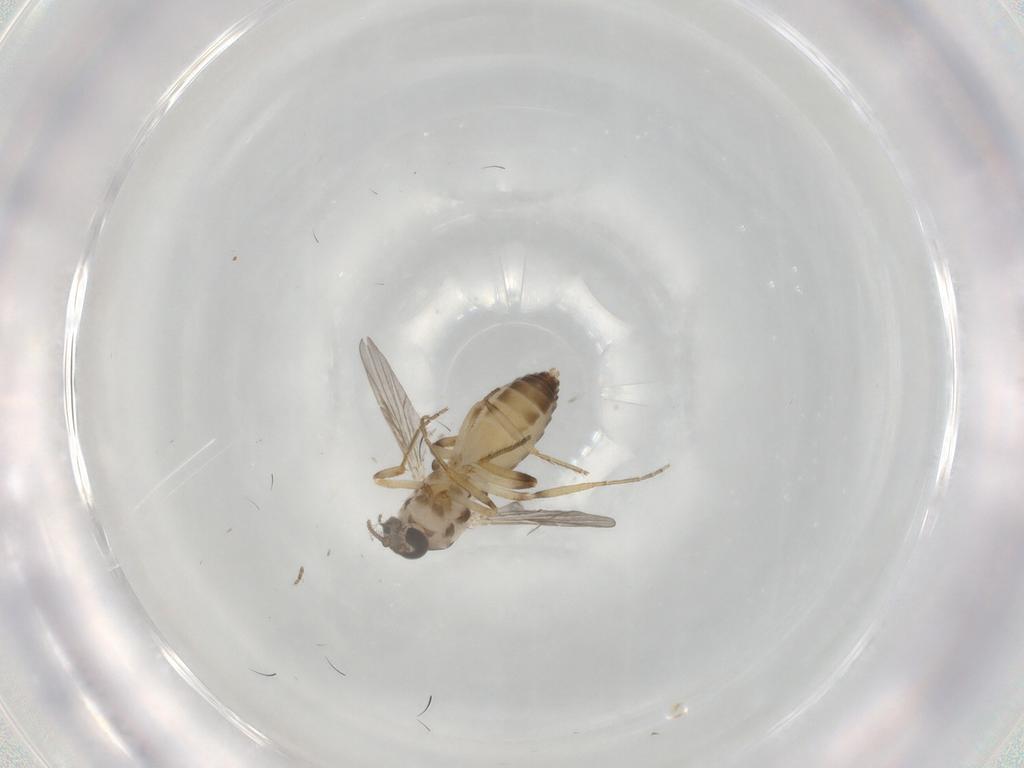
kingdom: Animalia
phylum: Arthropoda
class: Insecta
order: Diptera
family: Ceratopogonidae
